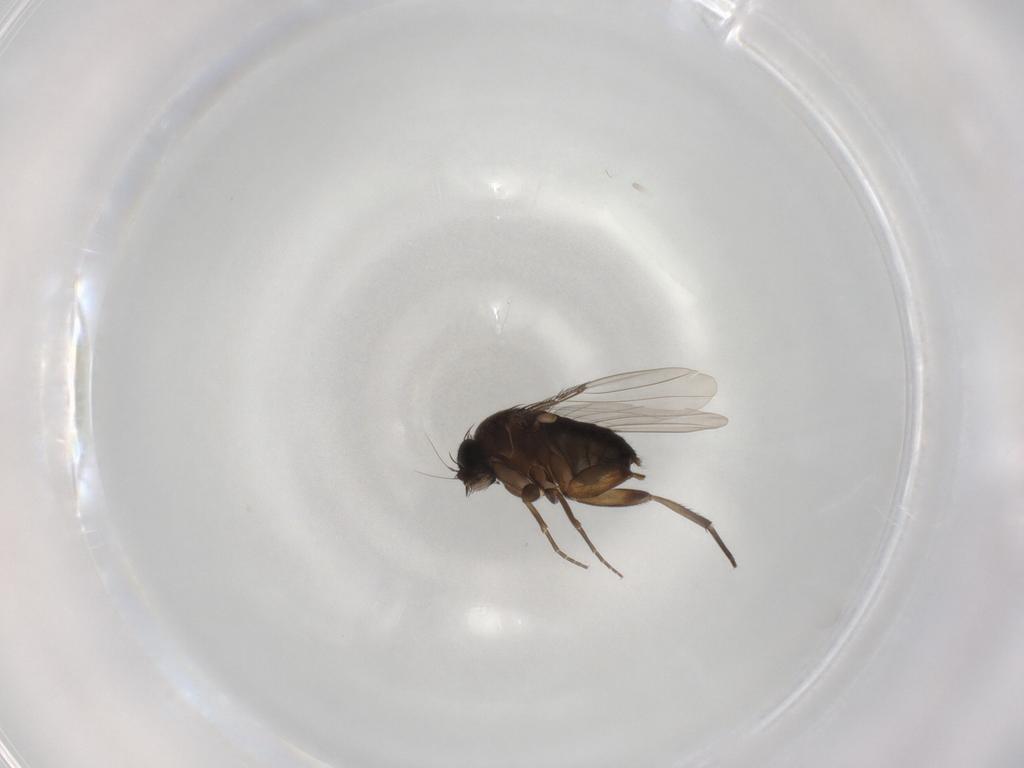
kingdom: Animalia
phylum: Arthropoda
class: Insecta
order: Diptera
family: Phoridae
